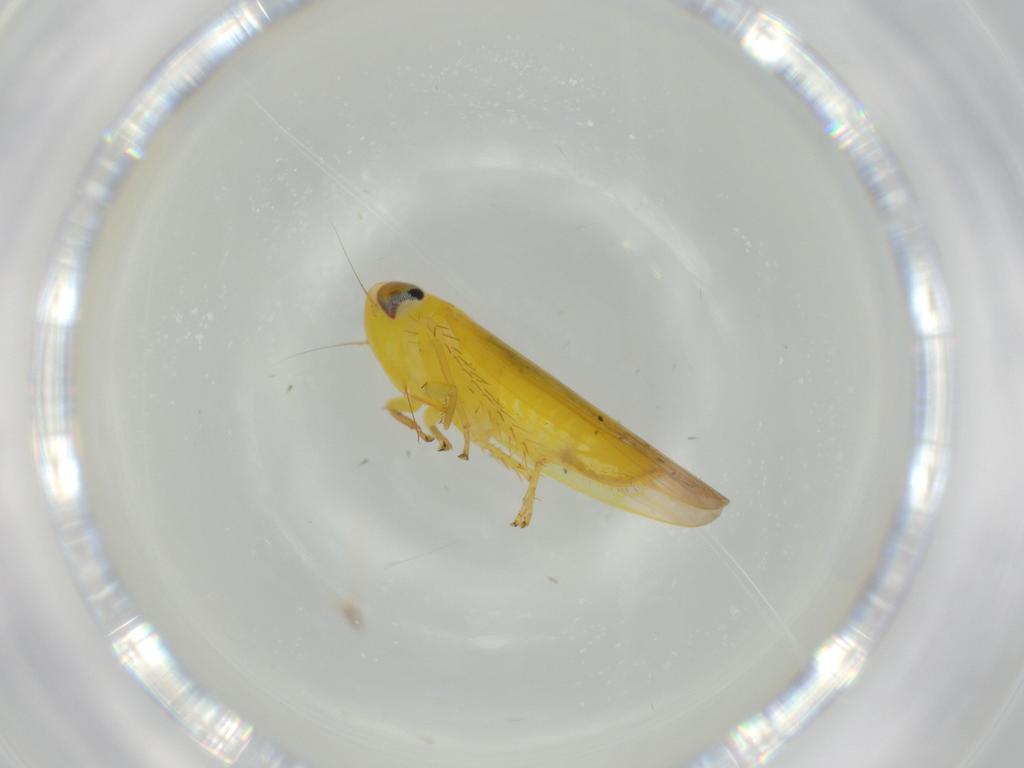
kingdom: Animalia
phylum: Arthropoda
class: Insecta
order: Hemiptera
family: Cicadellidae
